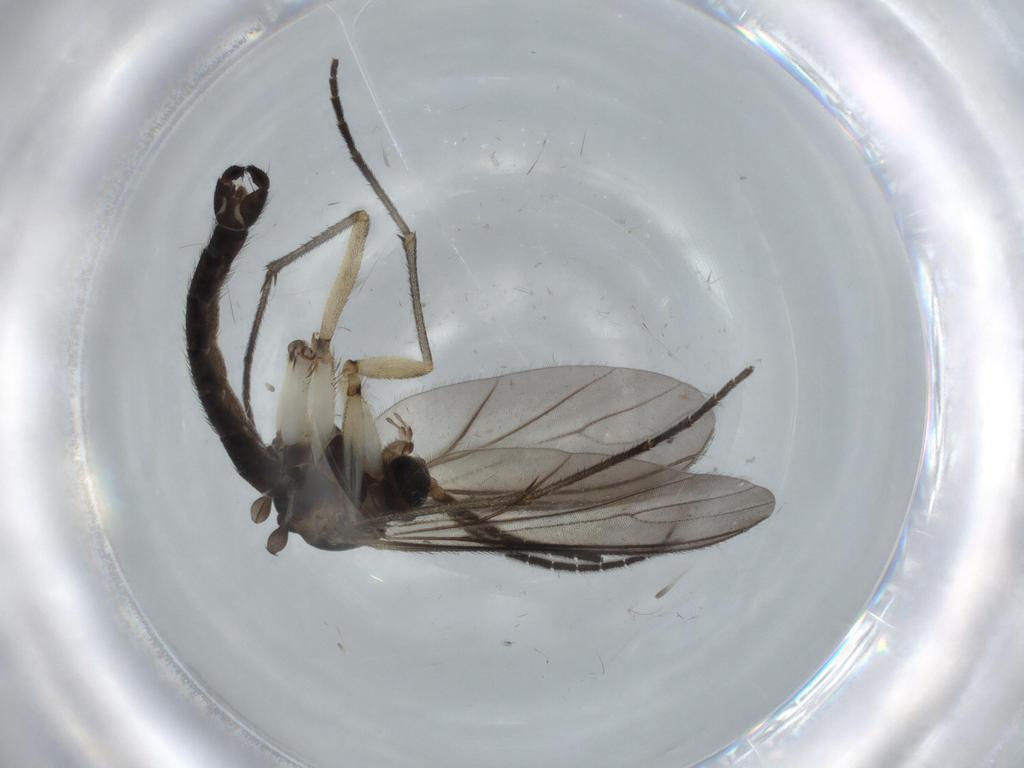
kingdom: Animalia
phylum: Arthropoda
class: Insecta
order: Diptera
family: Sciaridae
